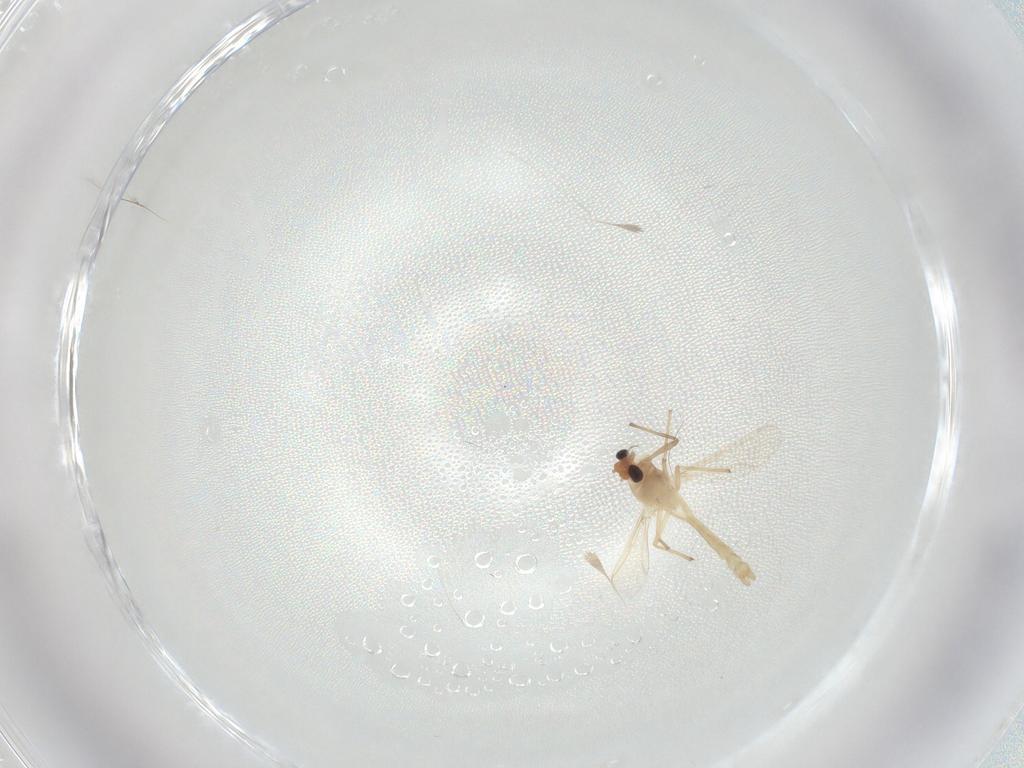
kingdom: Animalia
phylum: Arthropoda
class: Insecta
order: Diptera
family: Chironomidae
